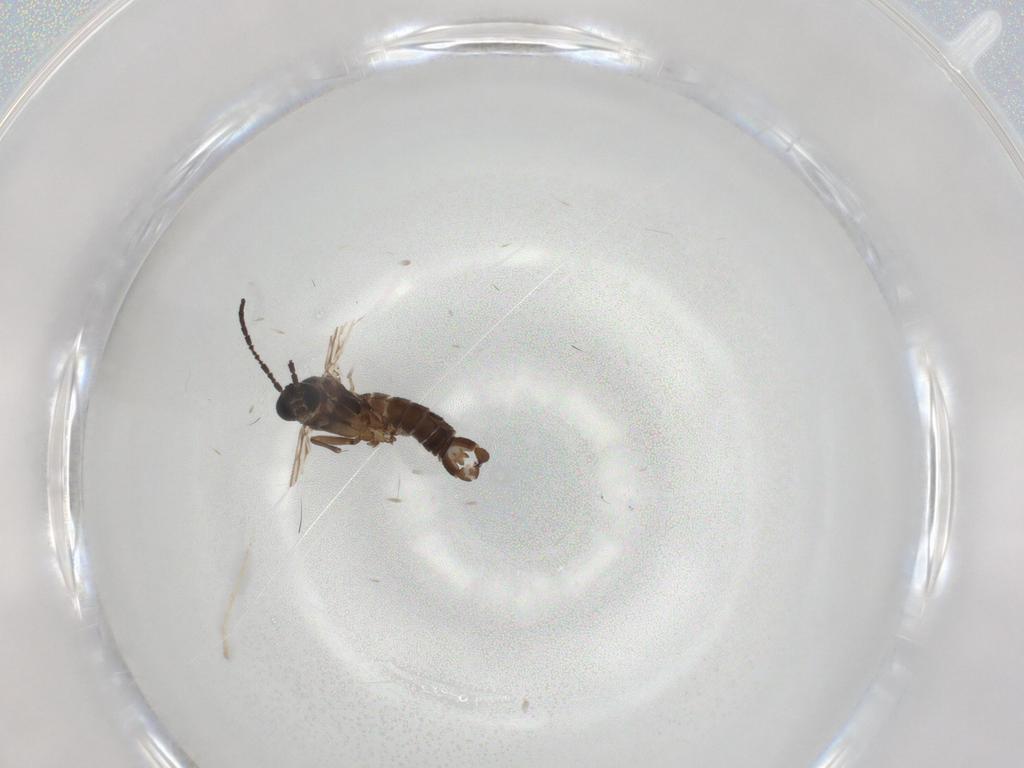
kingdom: Animalia
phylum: Arthropoda
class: Insecta
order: Diptera
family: Sciaridae
